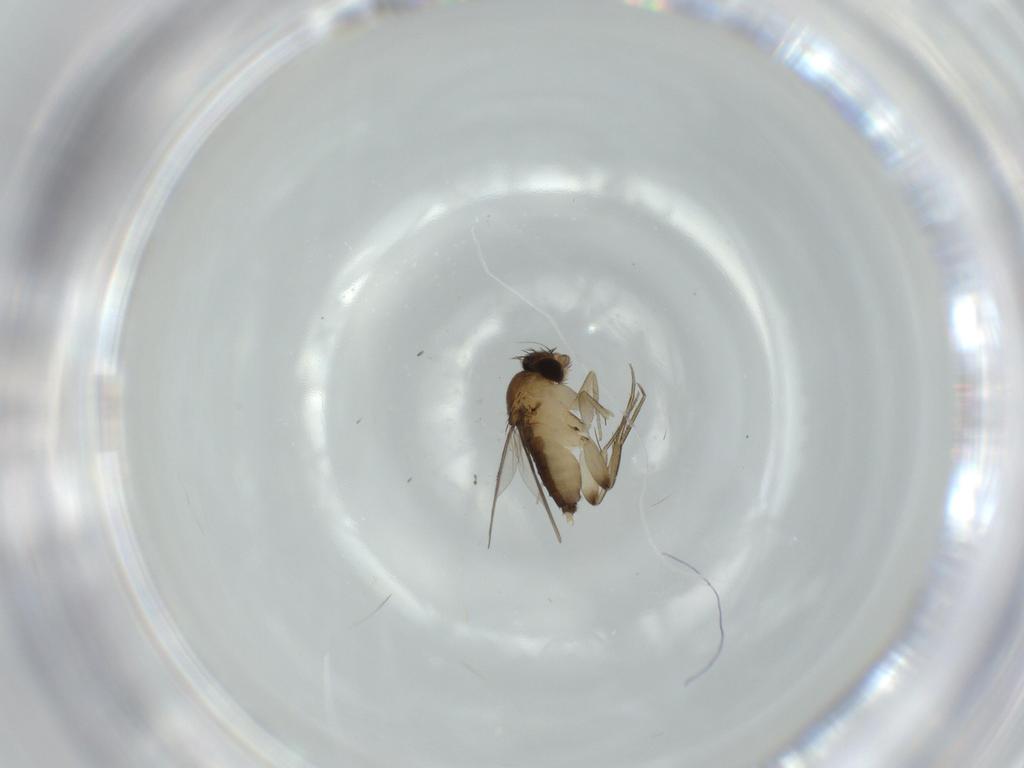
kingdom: Animalia
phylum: Arthropoda
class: Insecta
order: Diptera
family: Phoridae
